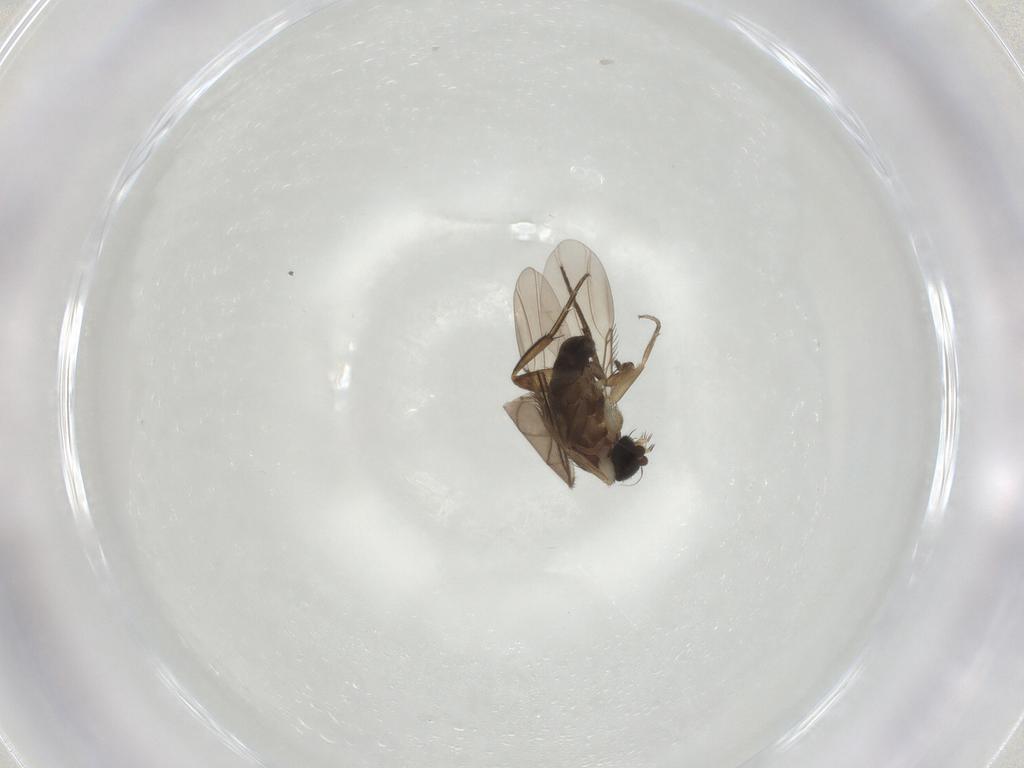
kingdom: Animalia
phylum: Arthropoda
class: Insecta
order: Diptera
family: Phoridae
